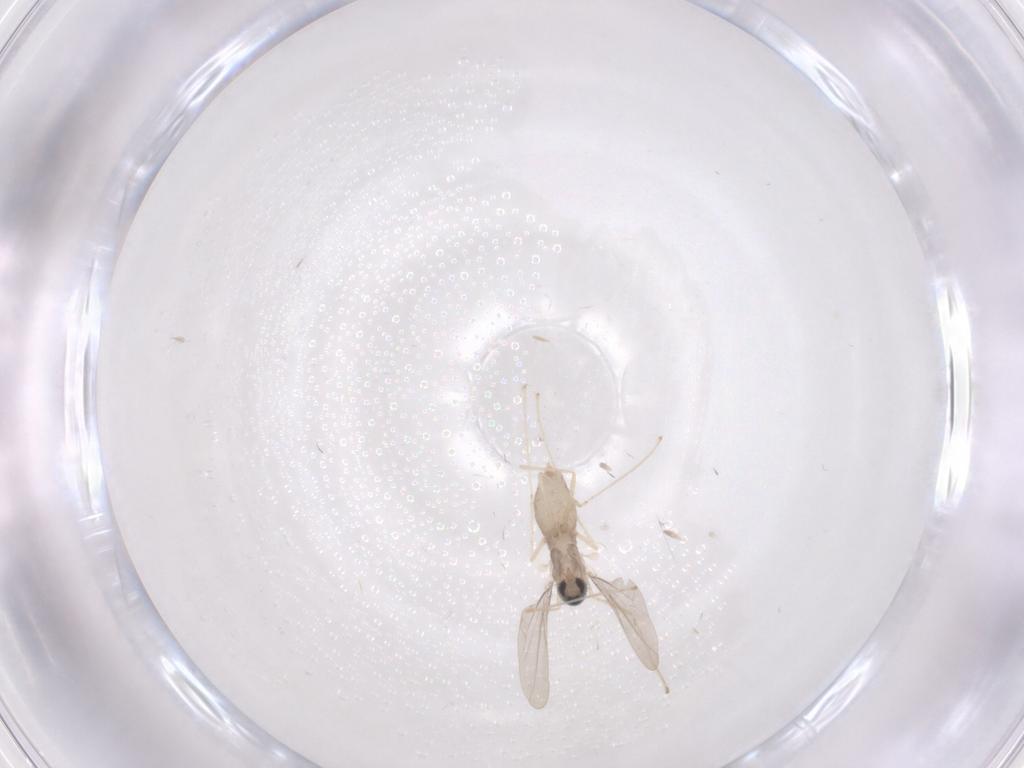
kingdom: Animalia
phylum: Arthropoda
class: Insecta
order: Diptera
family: Cecidomyiidae
